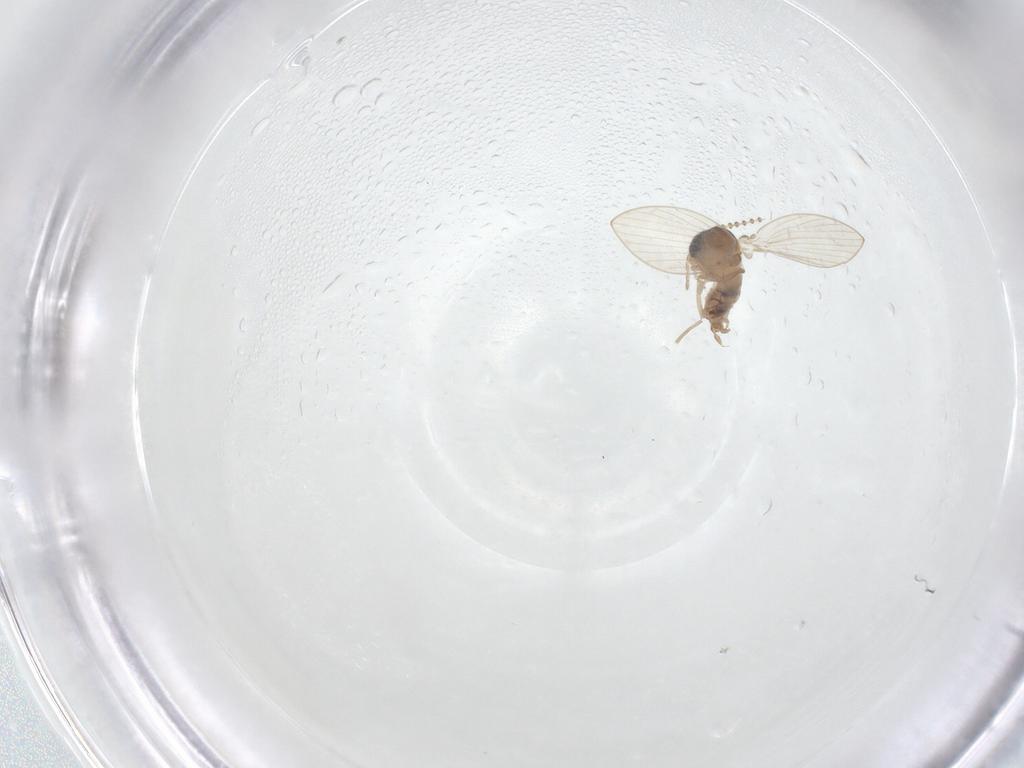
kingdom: Animalia
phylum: Arthropoda
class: Insecta
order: Diptera
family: Psychodidae
